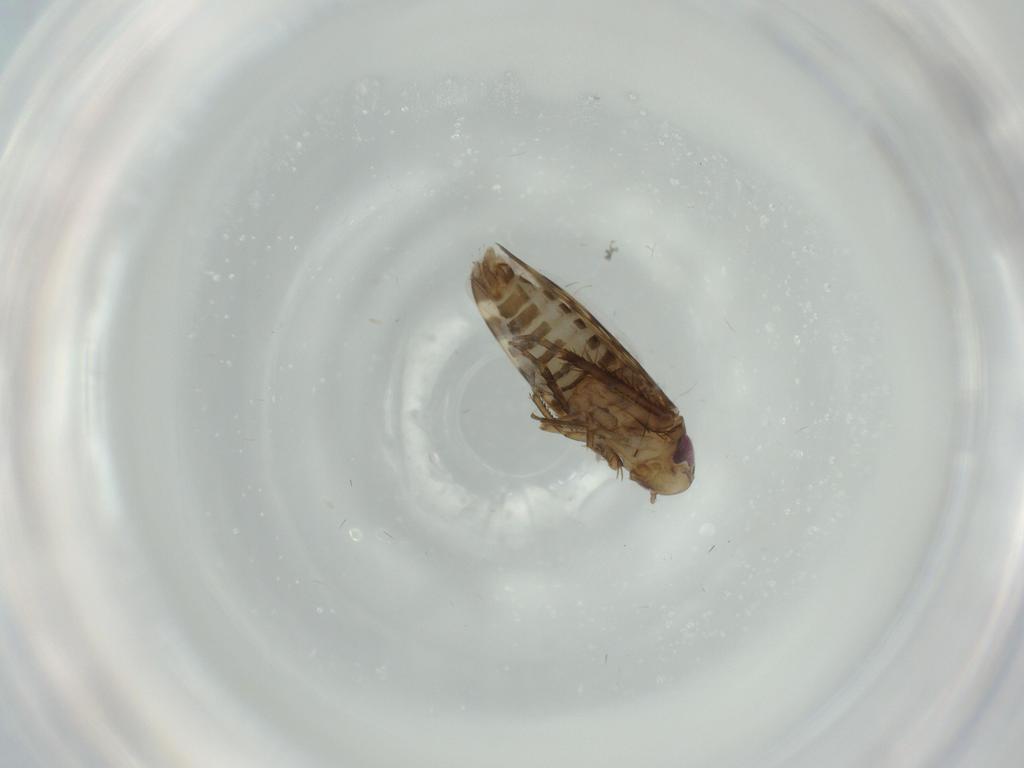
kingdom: Animalia
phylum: Arthropoda
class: Insecta
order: Hemiptera
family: Cicadellidae
